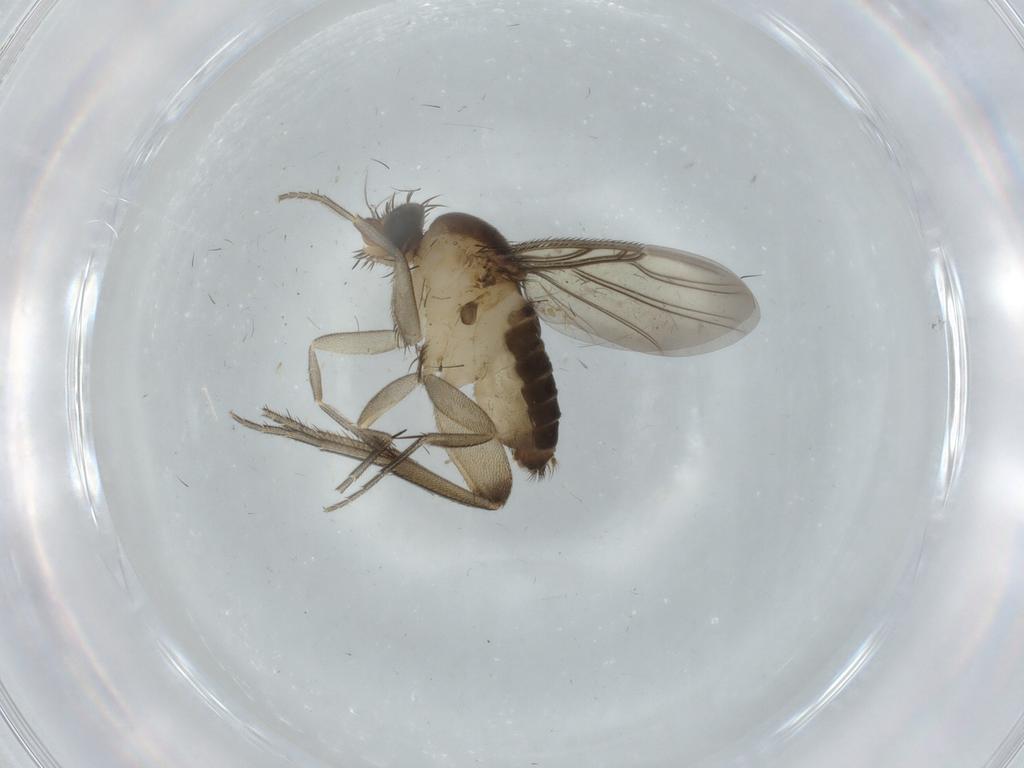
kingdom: Animalia
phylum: Arthropoda
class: Insecta
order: Diptera
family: Phoridae
